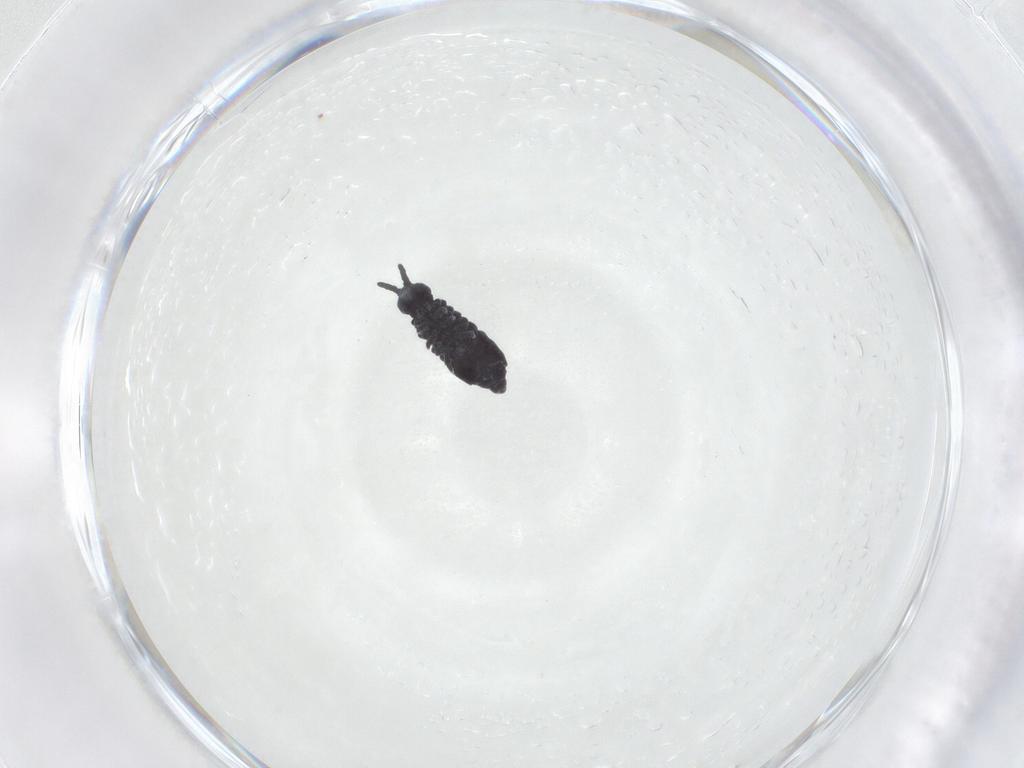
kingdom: Animalia
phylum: Arthropoda
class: Collembola
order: Poduromorpha
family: Hypogastruridae
